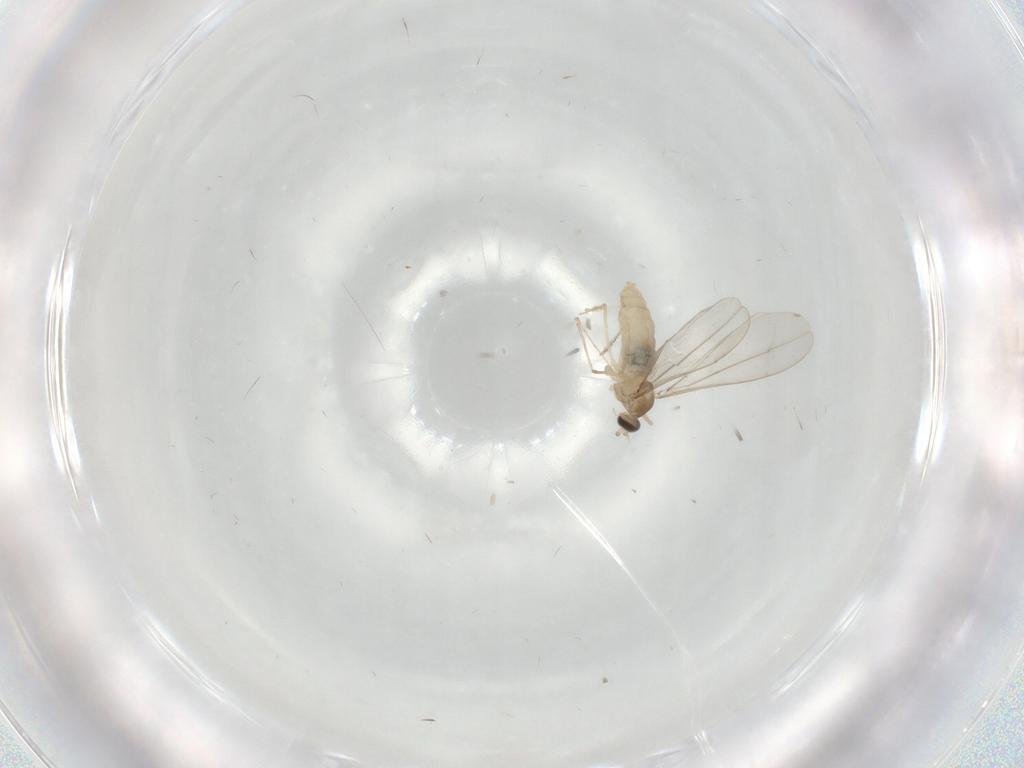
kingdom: Animalia
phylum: Arthropoda
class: Insecta
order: Diptera
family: Cecidomyiidae
